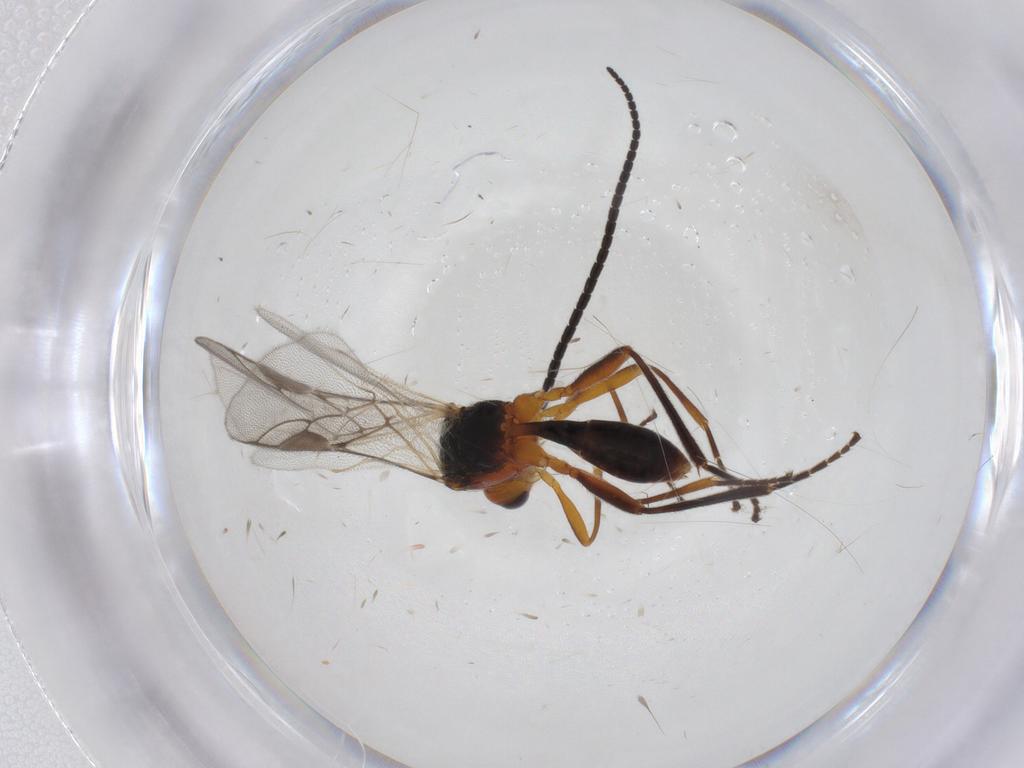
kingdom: Animalia
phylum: Arthropoda
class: Insecta
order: Hymenoptera
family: Braconidae
